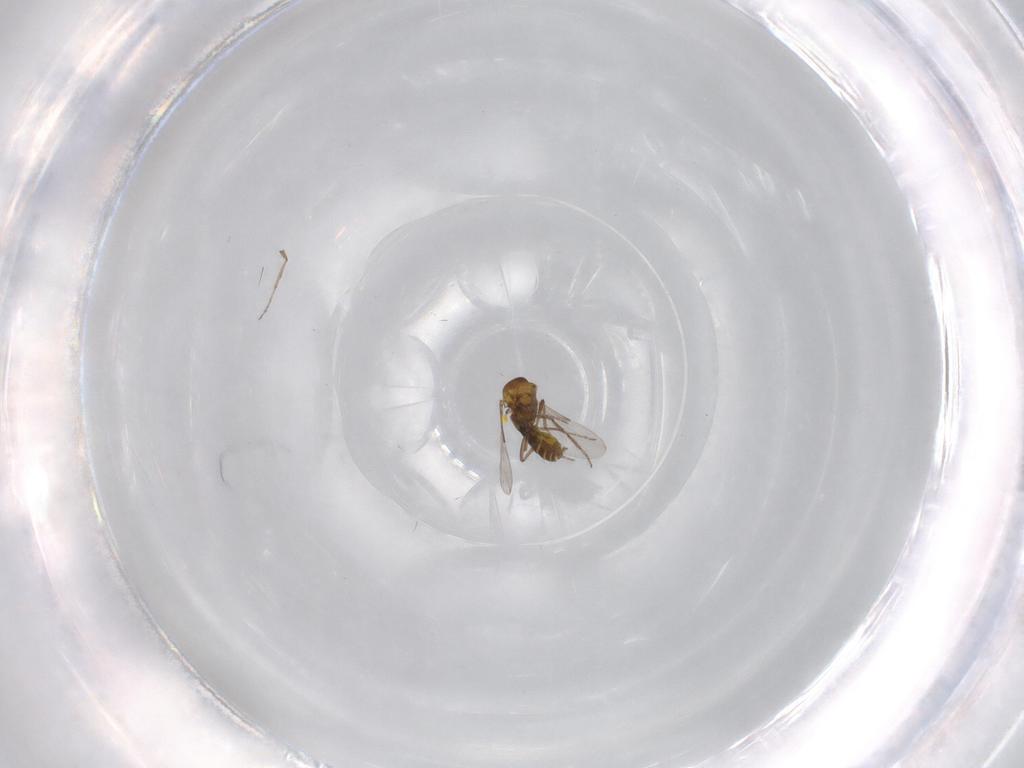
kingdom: Animalia
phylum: Arthropoda
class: Insecta
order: Diptera
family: Ceratopogonidae
